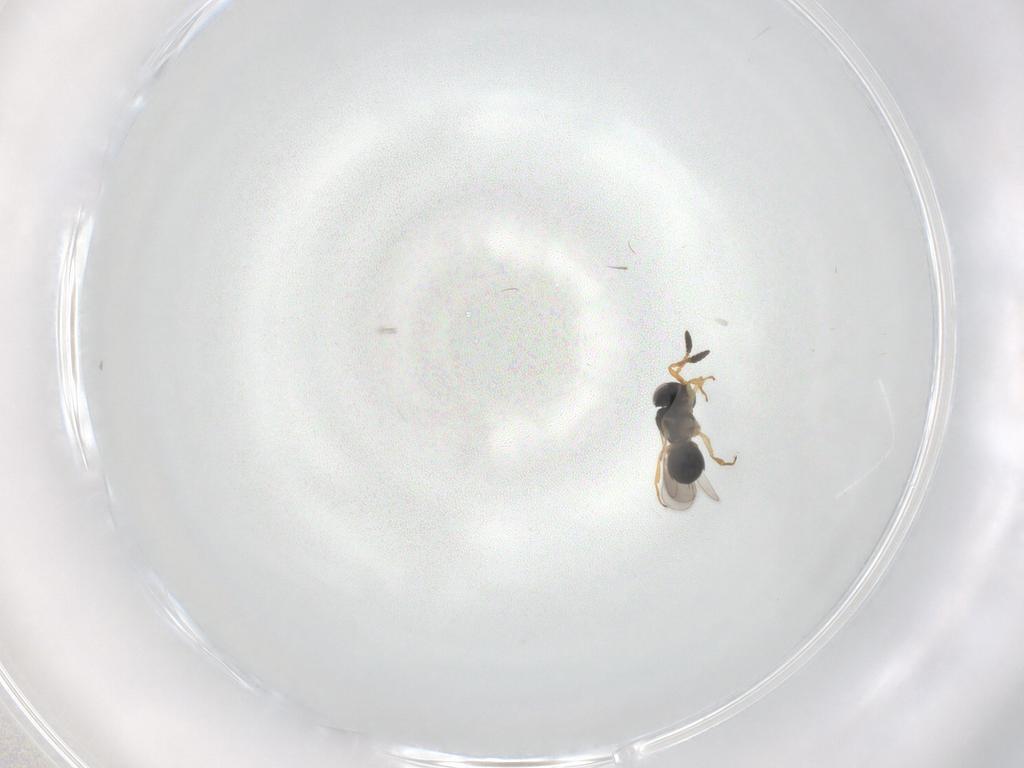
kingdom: Animalia
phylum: Arthropoda
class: Insecta
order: Hymenoptera
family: Scelionidae
